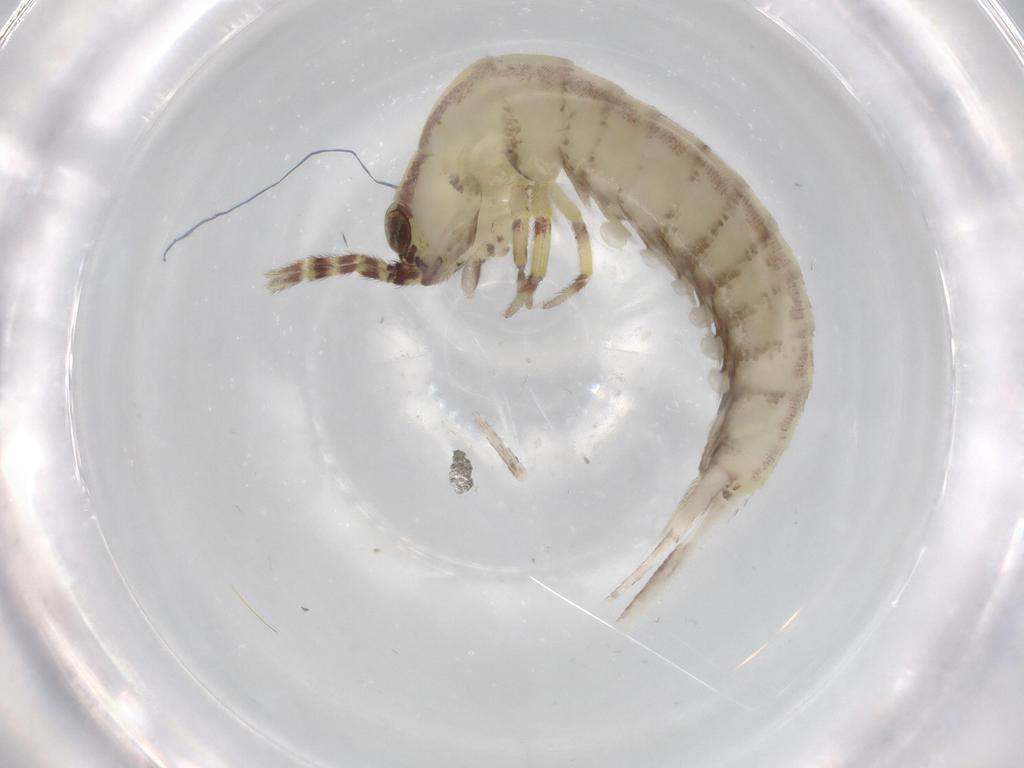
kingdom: Animalia
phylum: Arthropoda
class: Insecta
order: Archaeognatha
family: Machilidae
